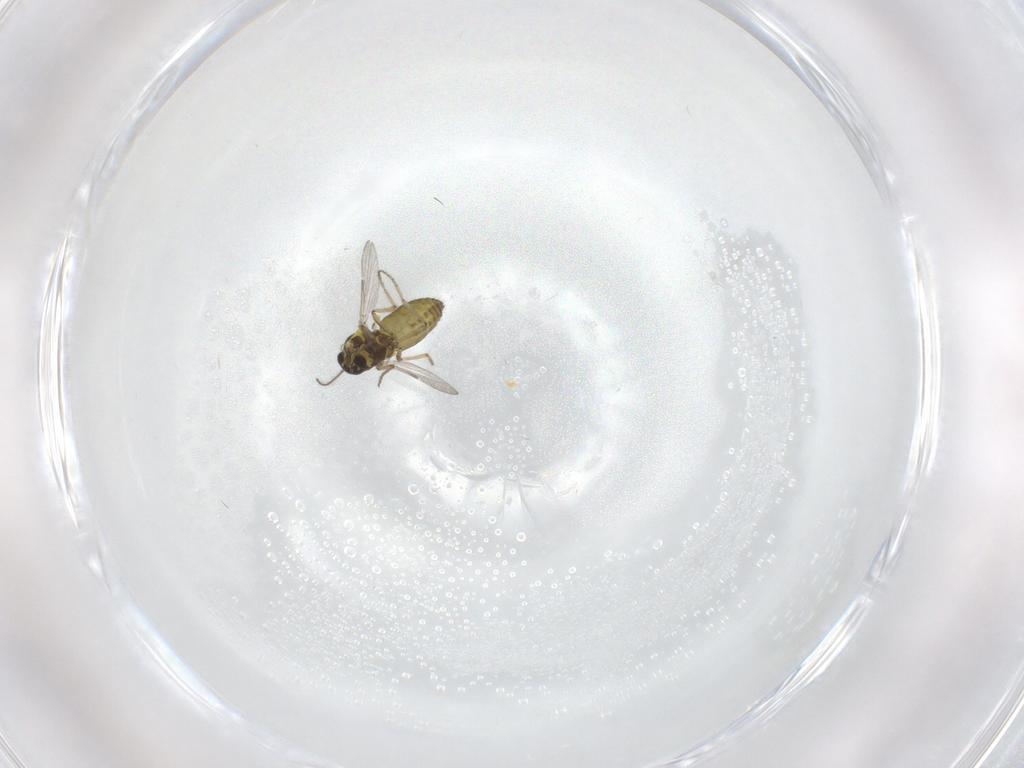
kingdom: Animalia
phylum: Arthropoda
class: Insecta
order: Diptera
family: Ceratopogonidae
